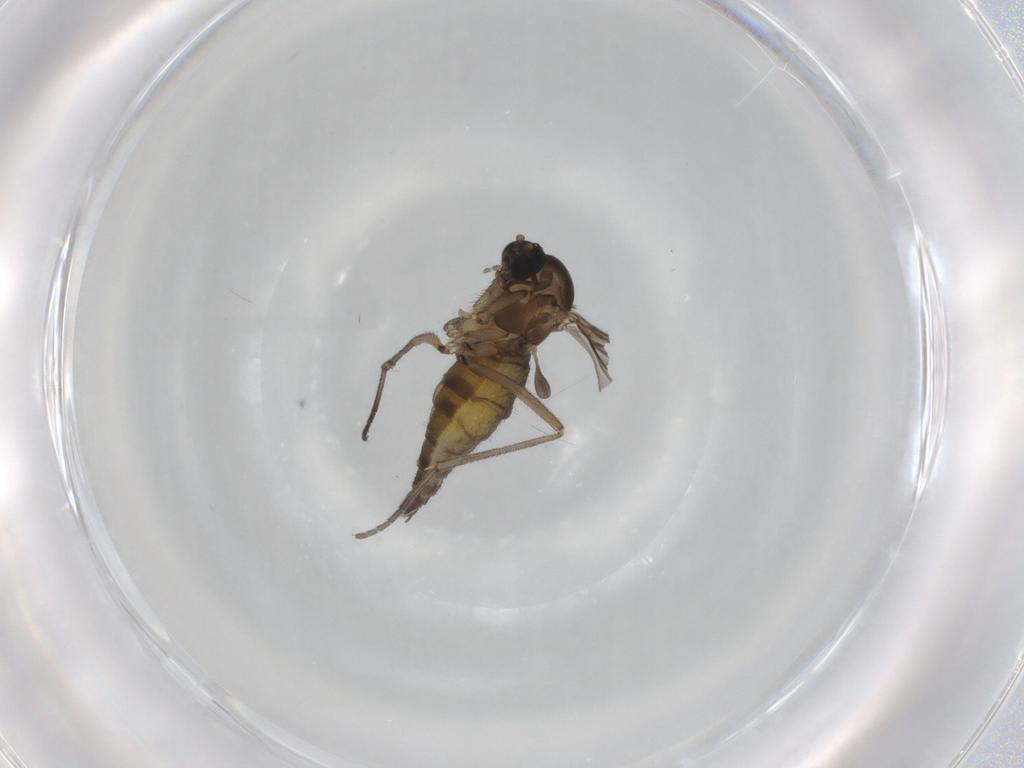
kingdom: Animalia
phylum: Arthropoda
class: Insecta
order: Diptera
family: Sciaridae
